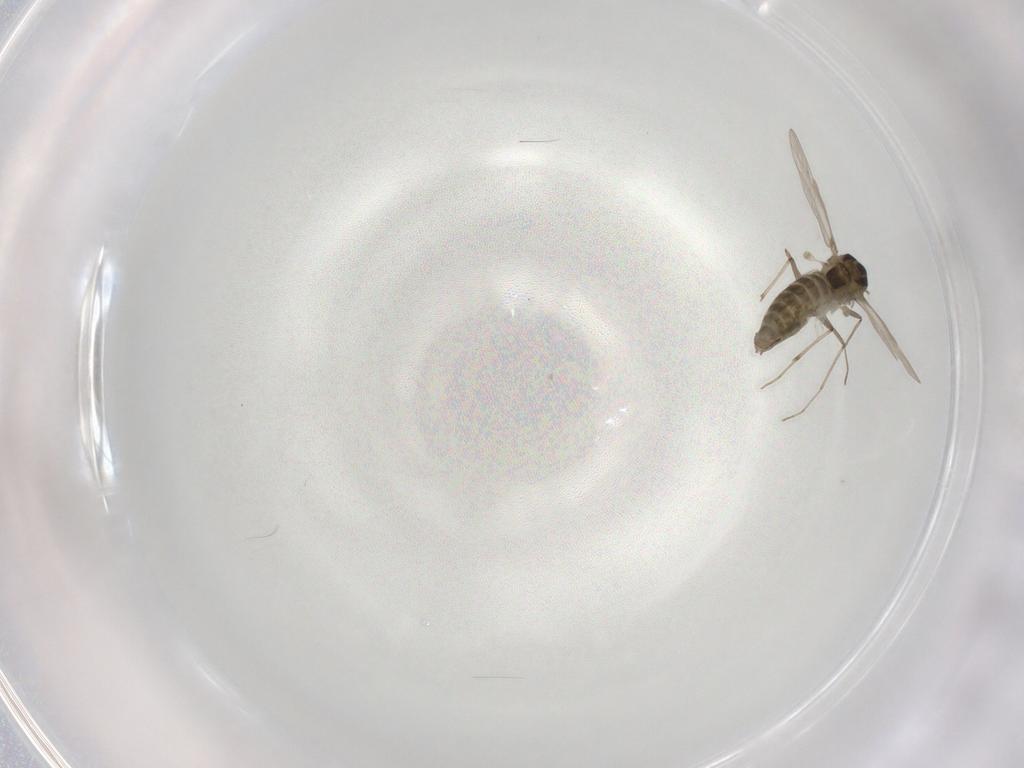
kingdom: Animalia
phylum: Arthropoda
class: Insecta
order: Diptera
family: Chironomidae
